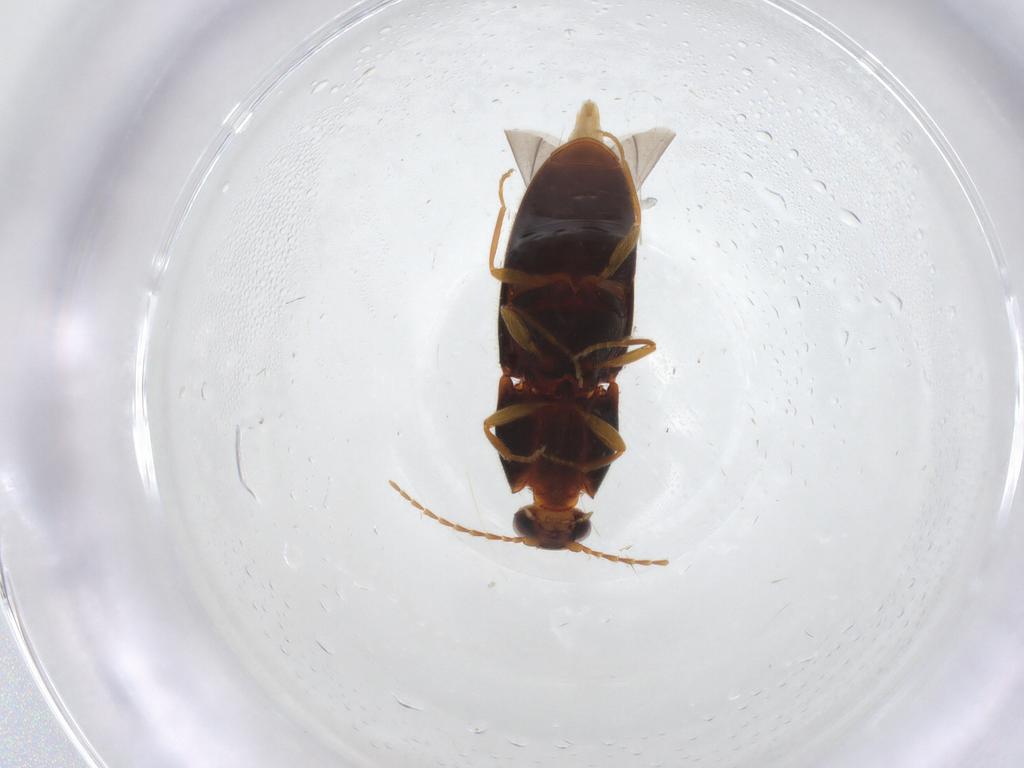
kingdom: Animalia
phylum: Arthropoda
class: Insecta
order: Coleoptera
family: Elateridae
